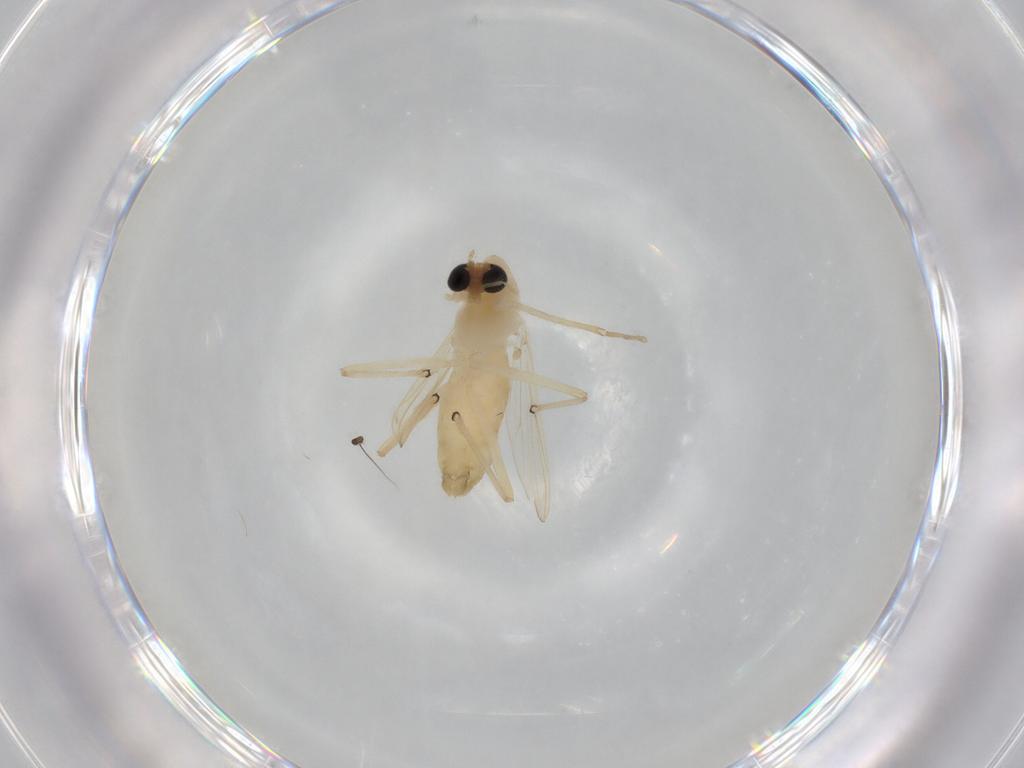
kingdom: Animalia
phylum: Arthropoda
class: Insecta
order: Diptera
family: Chironomidae
